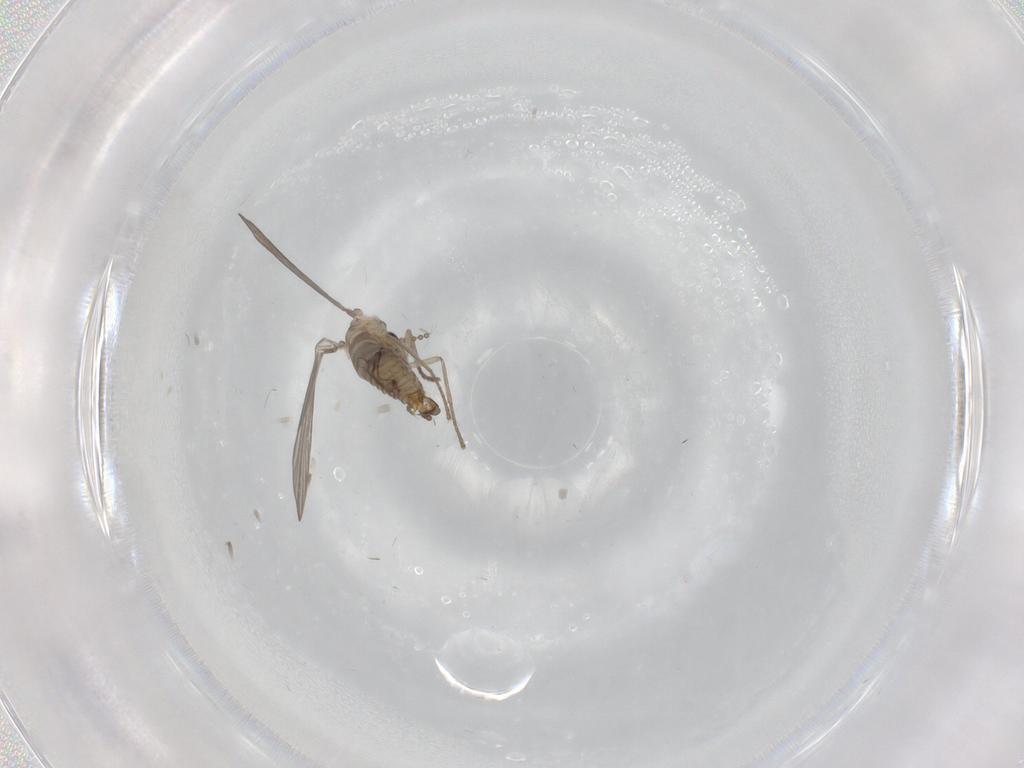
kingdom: Animalia
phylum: Arthropoda
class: Insecta
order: Diptera
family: Psychodidae
